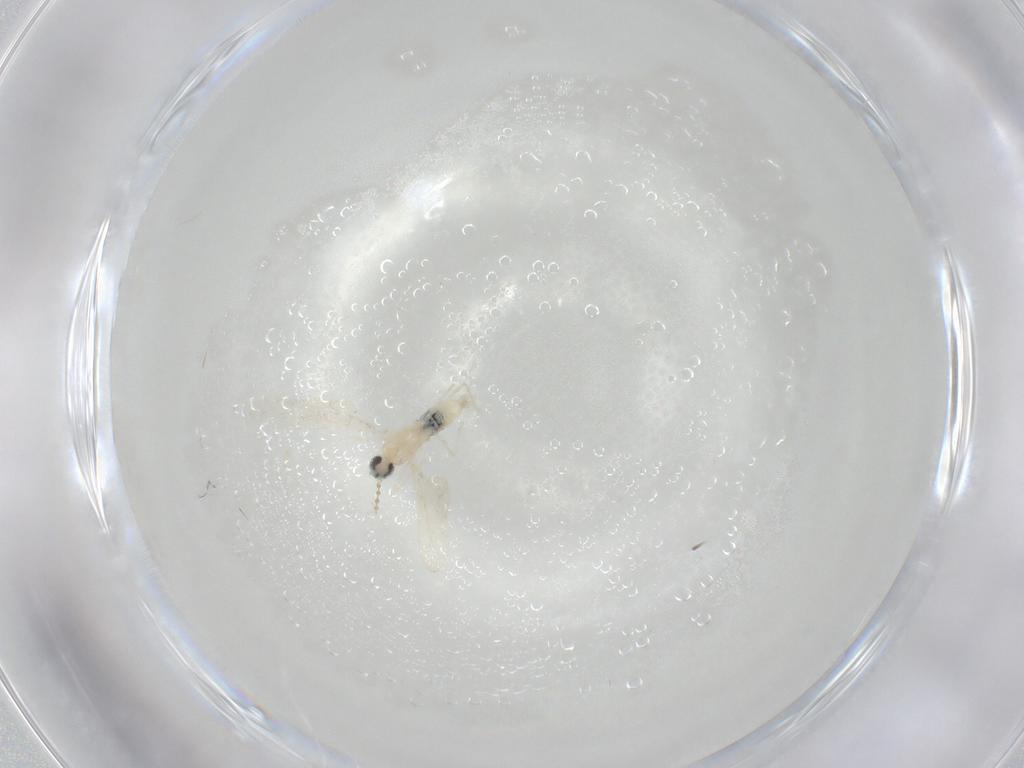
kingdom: Animalia
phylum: Arthropoda
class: Insecta
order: Diptera
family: Cecidomyiidae
